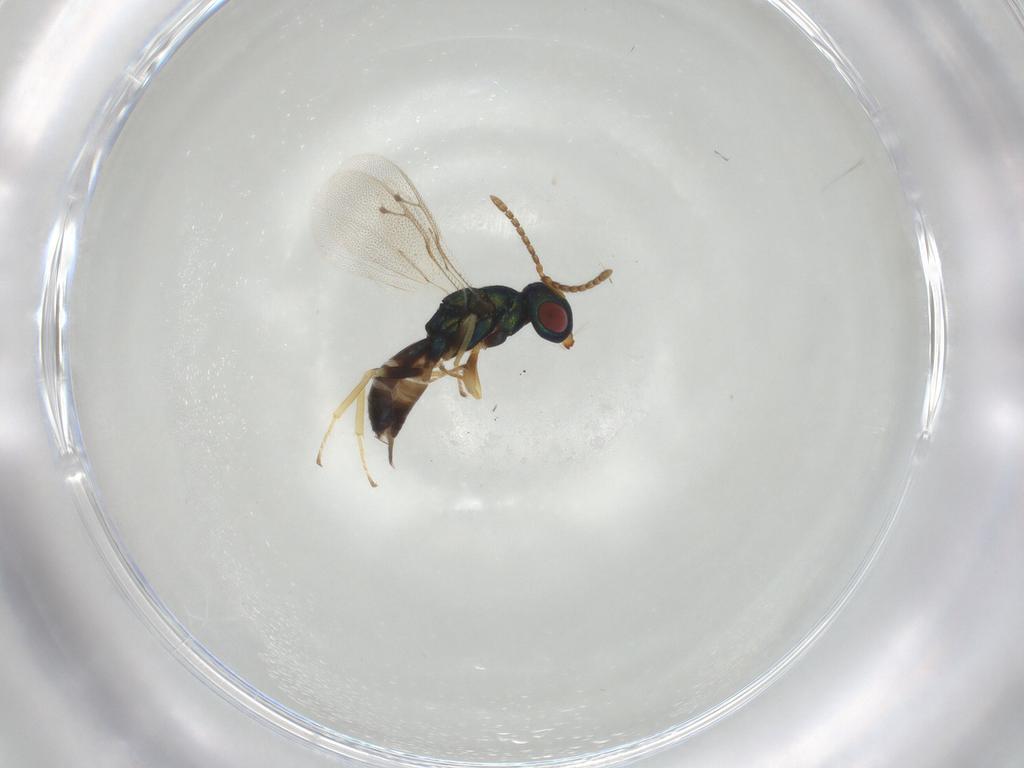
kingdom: Animalia
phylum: Arthropoda
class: Insecta
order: Hymenoptera
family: Pteromalidae
